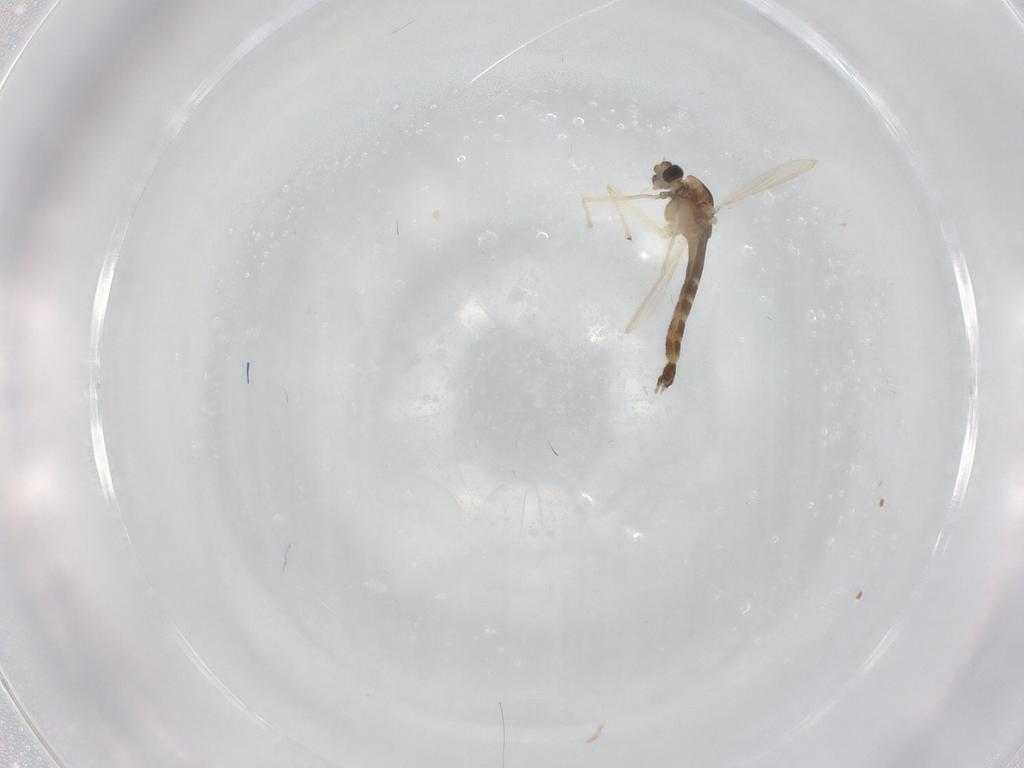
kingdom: Animalia
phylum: Arthropoda
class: Insecta
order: Diptera
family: Chironomidae
